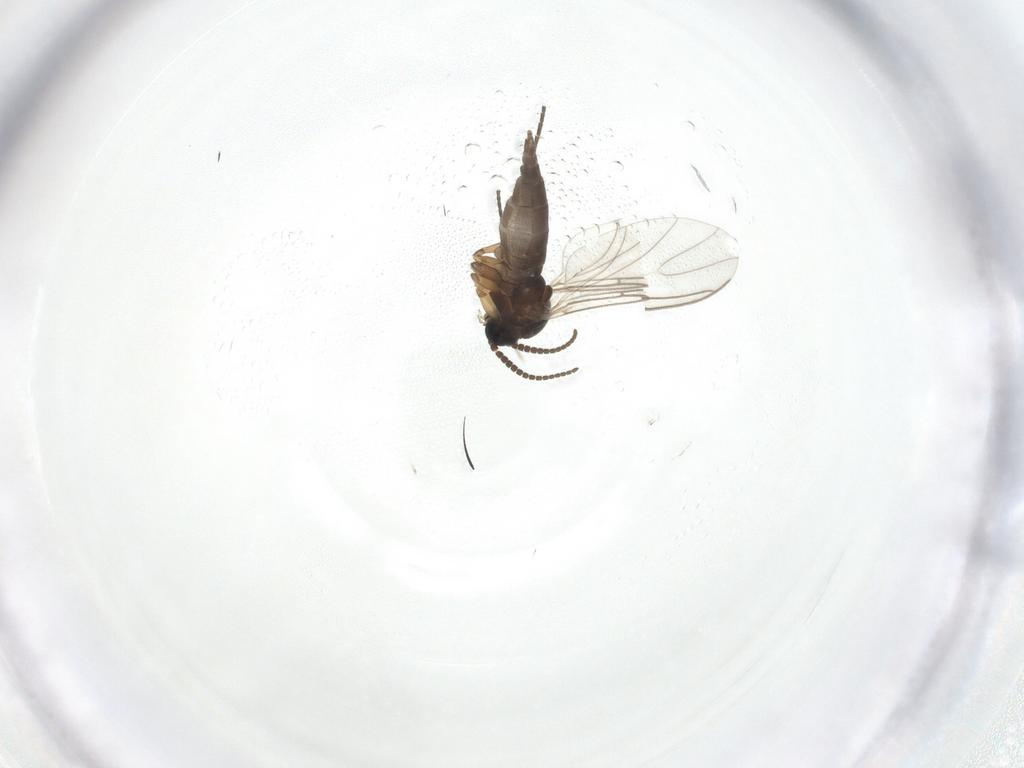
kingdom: Animalia
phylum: Arthropoda
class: Insecta
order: Diptera
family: Sciaridae
